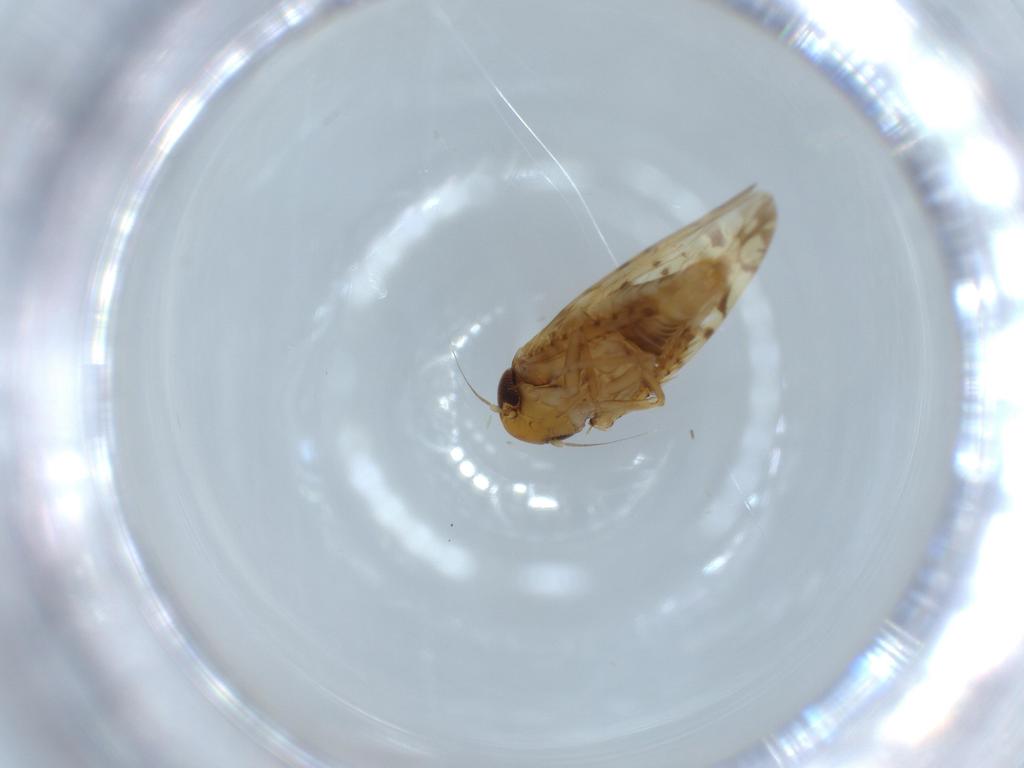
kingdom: Animalia
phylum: Arthropoda
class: Insecta
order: Hemiptera
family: Cicadellidae
